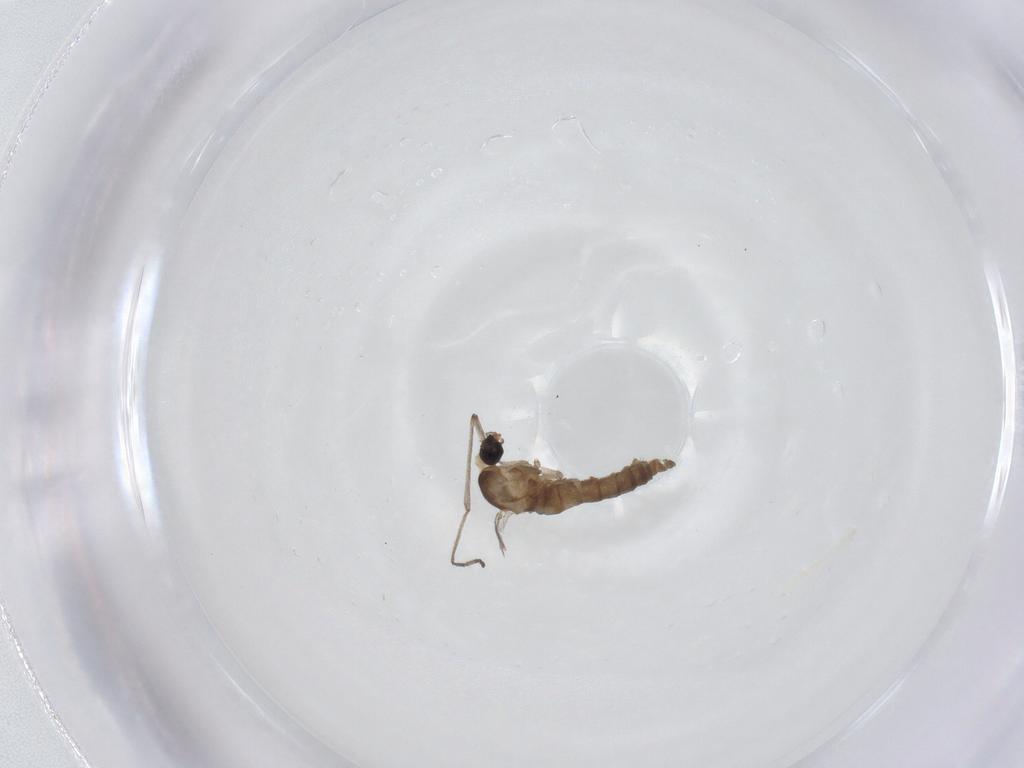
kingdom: Animalia
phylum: Arthropoda
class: Insecta
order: Diptera
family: Cecidomyiidae
